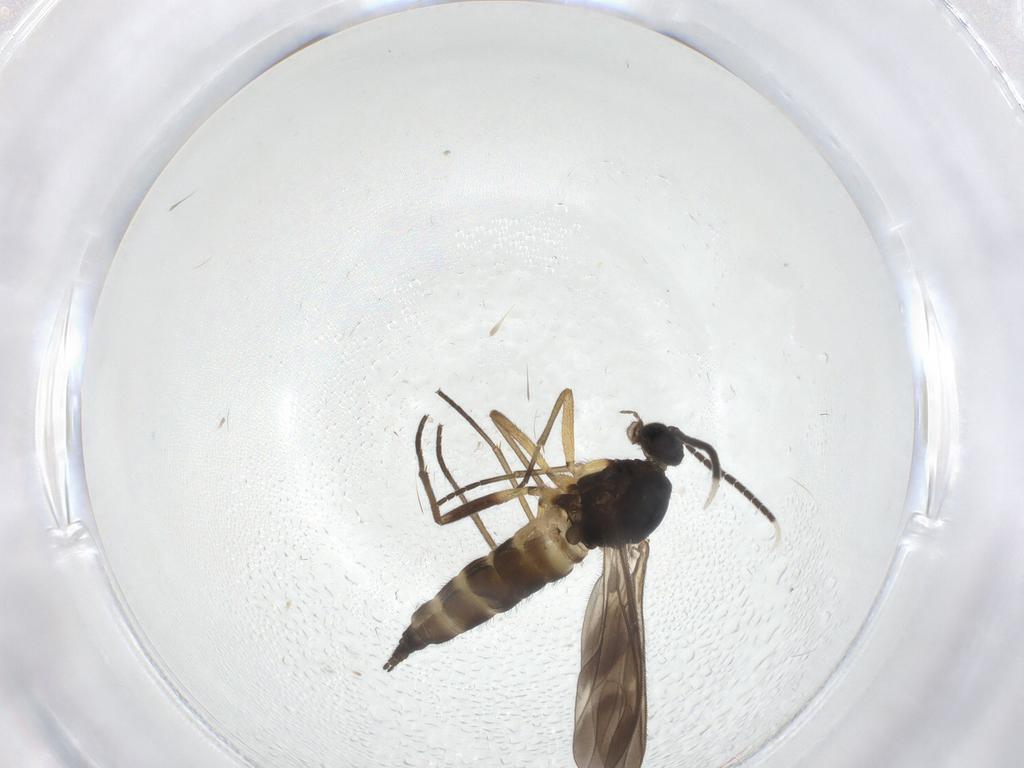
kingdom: Animalia
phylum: Arthropoda
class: Insecta
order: Diptera
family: Sciaridae
